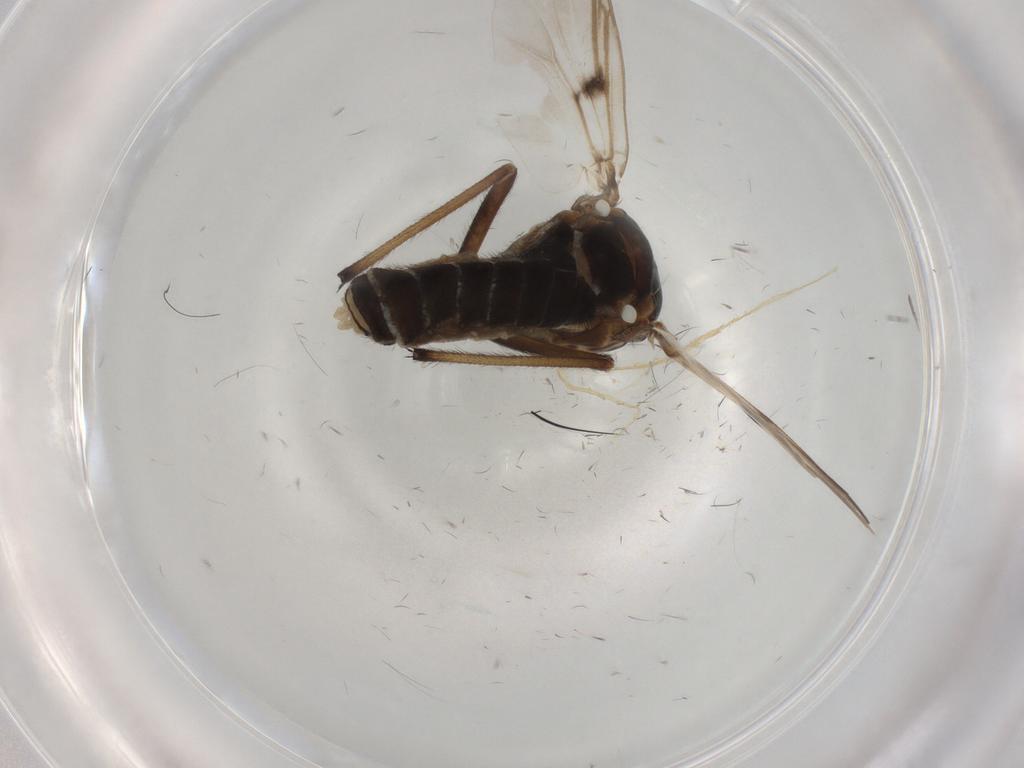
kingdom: Animalia
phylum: Arthropoda
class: Insecta
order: Diptera
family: Chironomidae
